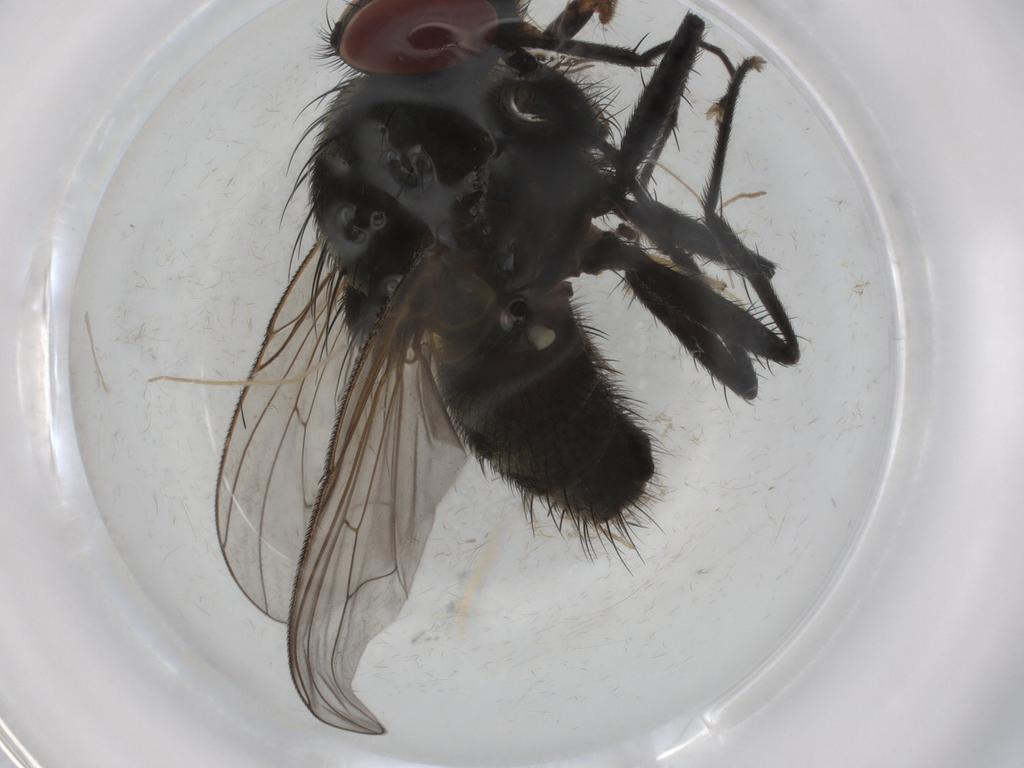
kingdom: Animalia
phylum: Arthropoda
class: Insecta
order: Diptera
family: Muscidae
